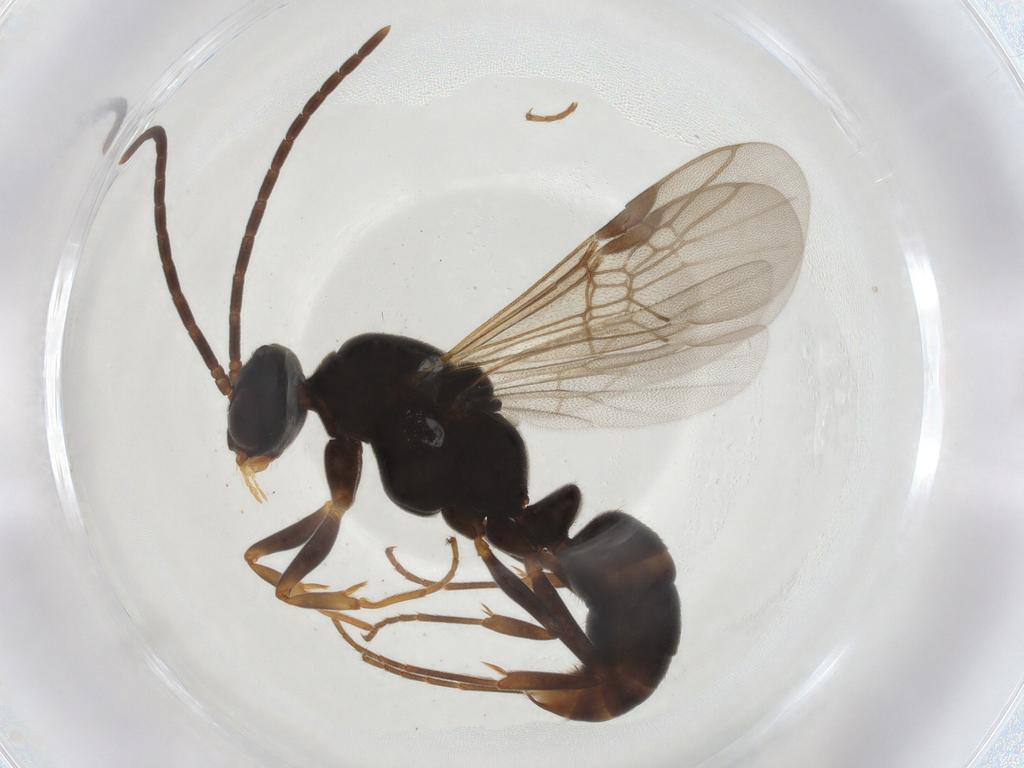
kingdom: Animalia
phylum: Arthropoda
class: Insecta
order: Hymenoptera
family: Formicidae
